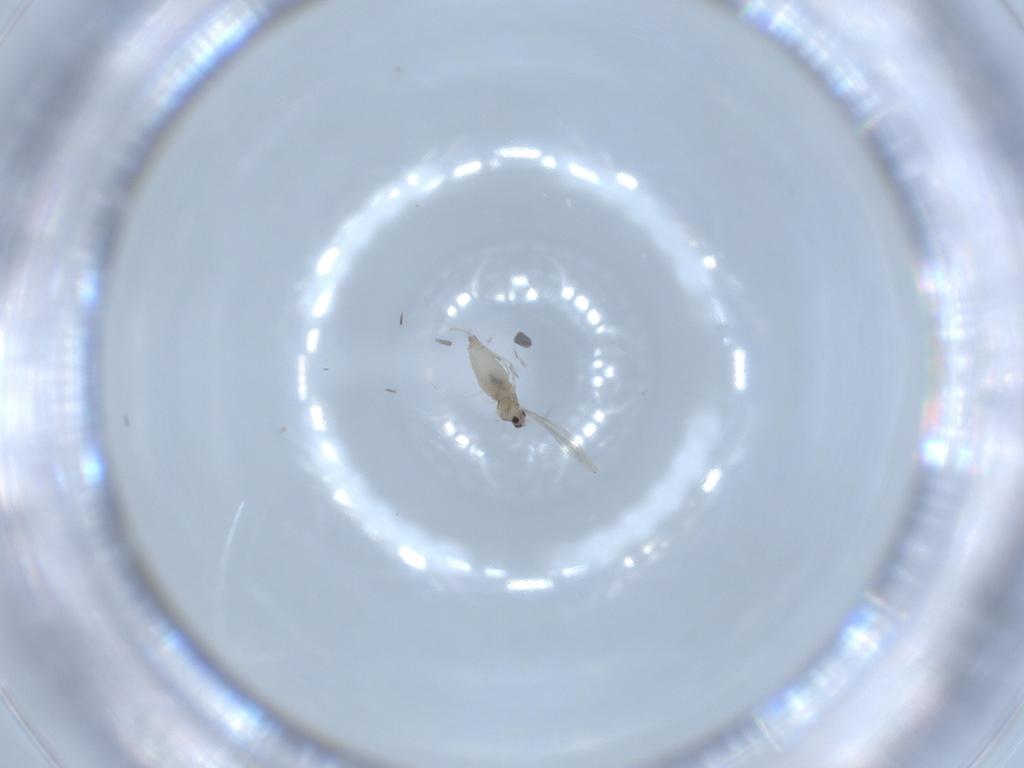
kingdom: Animalia
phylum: Arthropoda
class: Insecta
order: Diptera
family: Cecidomyiidae
